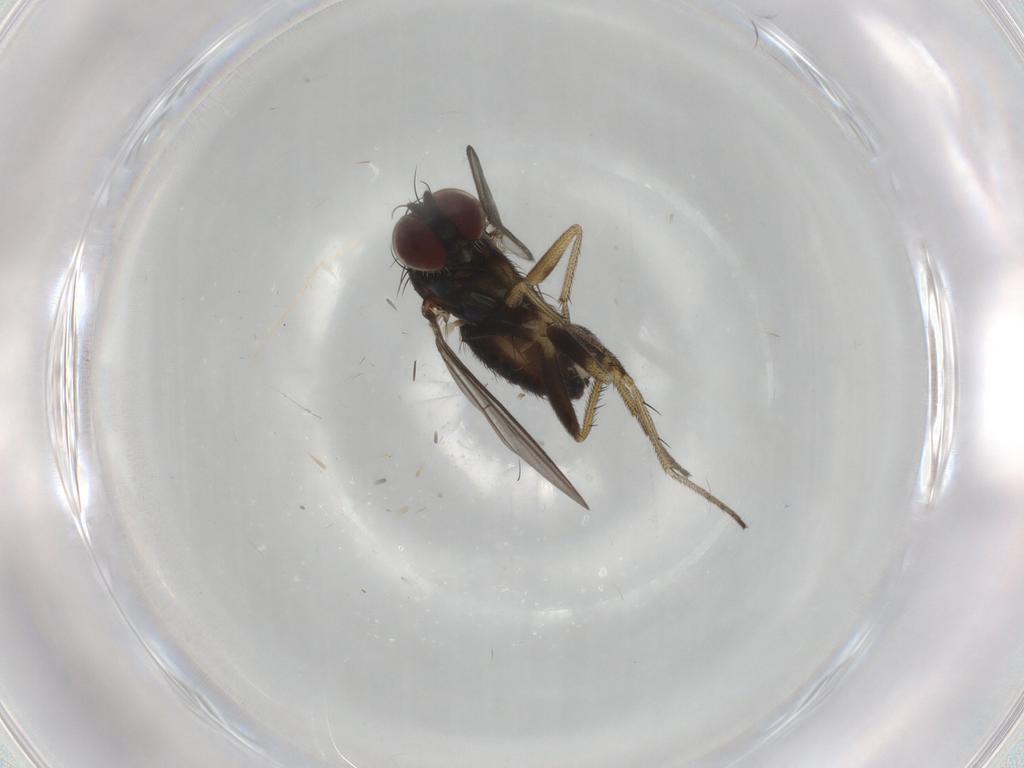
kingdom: Animalia
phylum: Arthropoda
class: Insecta
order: Diptera
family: Dolichopodidae
